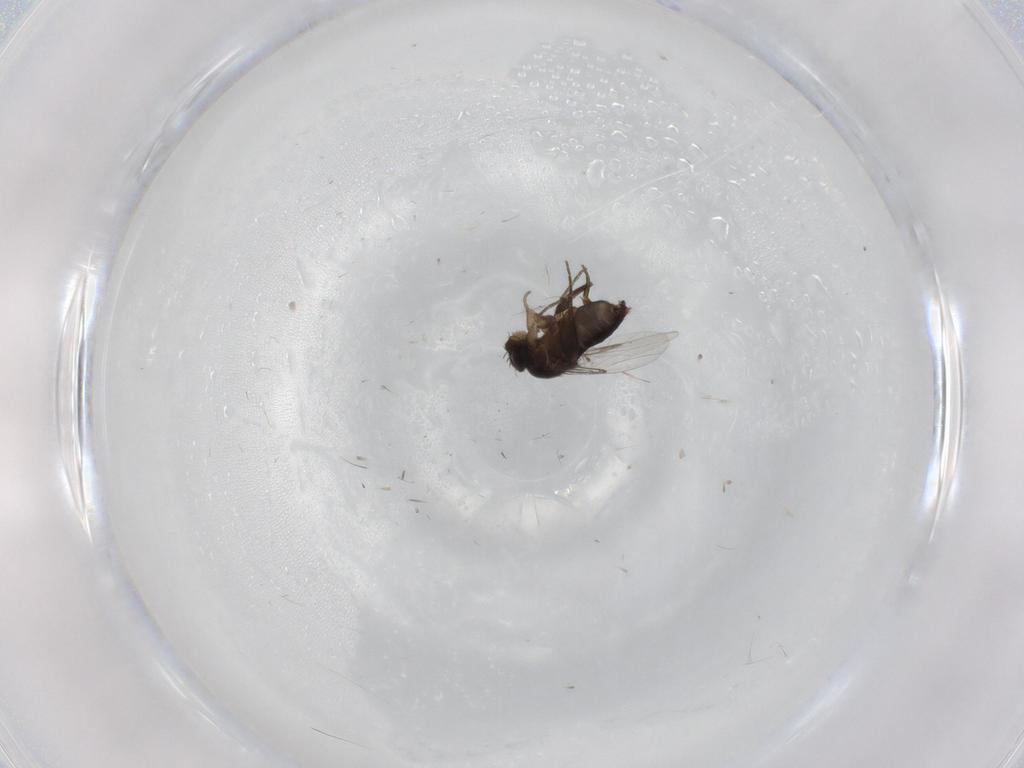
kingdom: Animalia
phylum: Arthropoda
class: Insecta
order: Diptera
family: Phoridae
